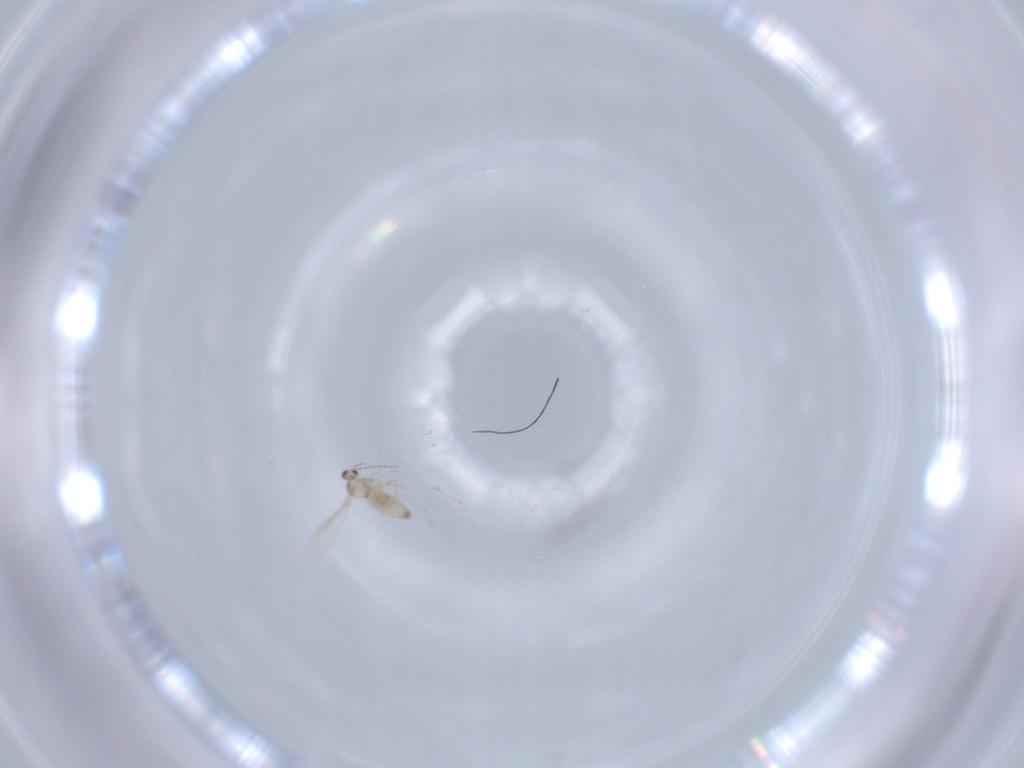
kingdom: Animalia
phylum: Arthropoda
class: Insecta
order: Diptera
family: Cecidomyiidae
